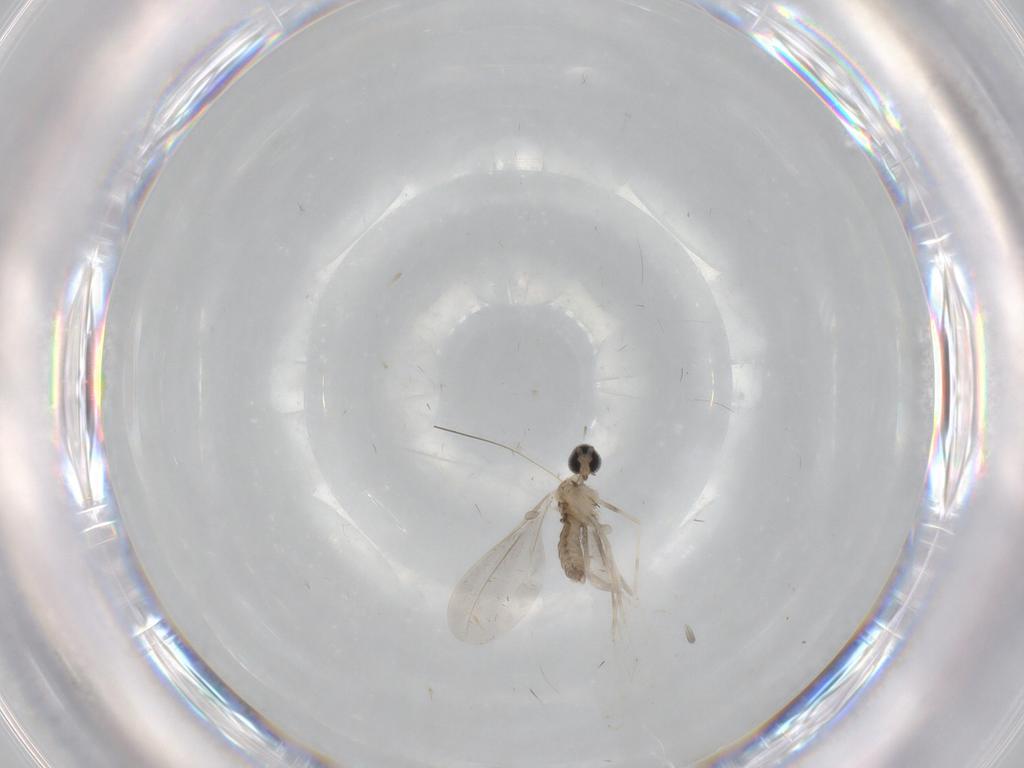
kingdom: Animalia
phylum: Arthropoda
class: Insecta
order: Diptera
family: Cecidomyiidae
